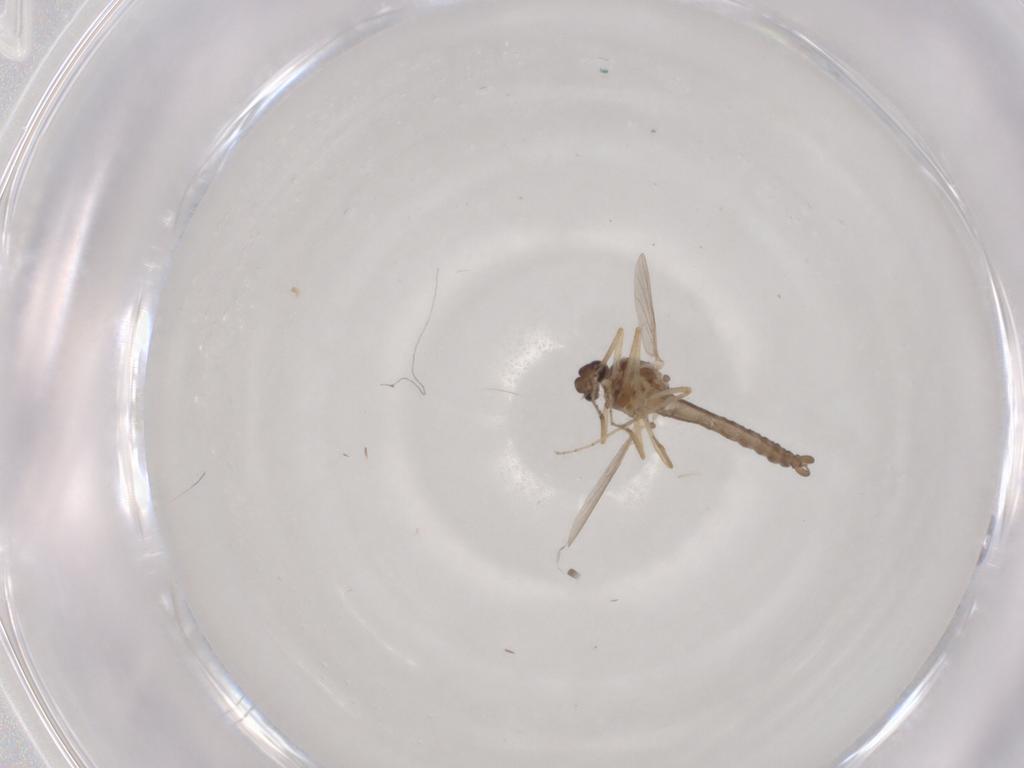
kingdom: Animalia
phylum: Arthropoda
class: Insecta
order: Diptera
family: Ceratopogonidae
